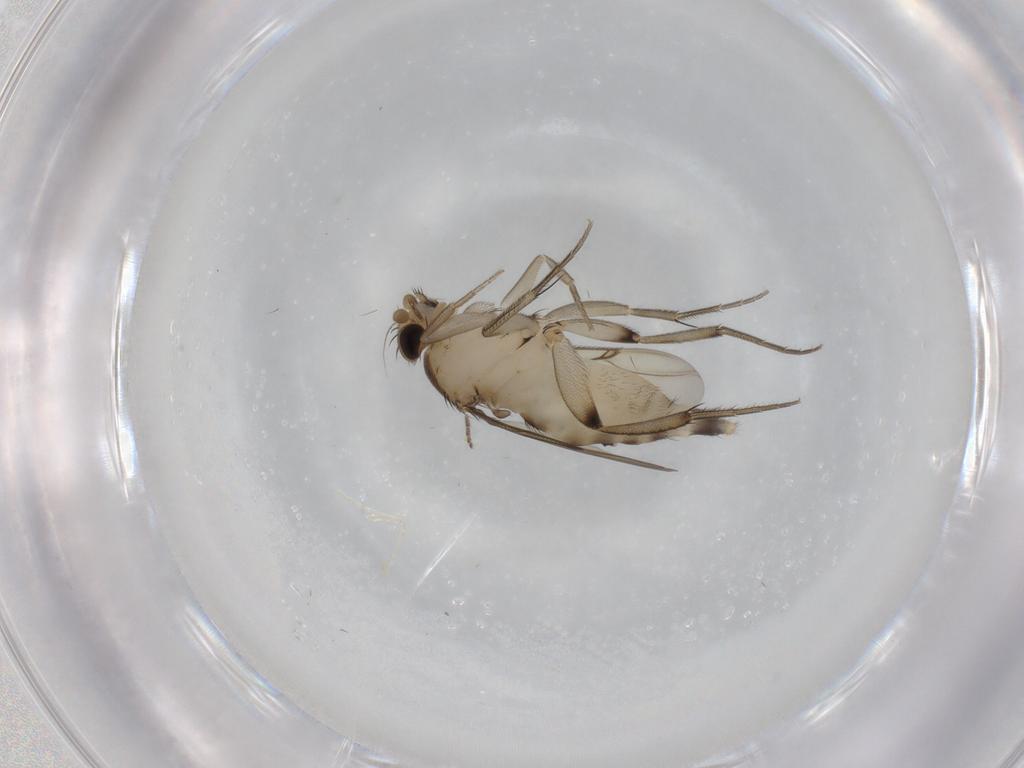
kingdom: Animalia
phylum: Arthropoda
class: Insecta
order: Diptera
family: Phoridae
